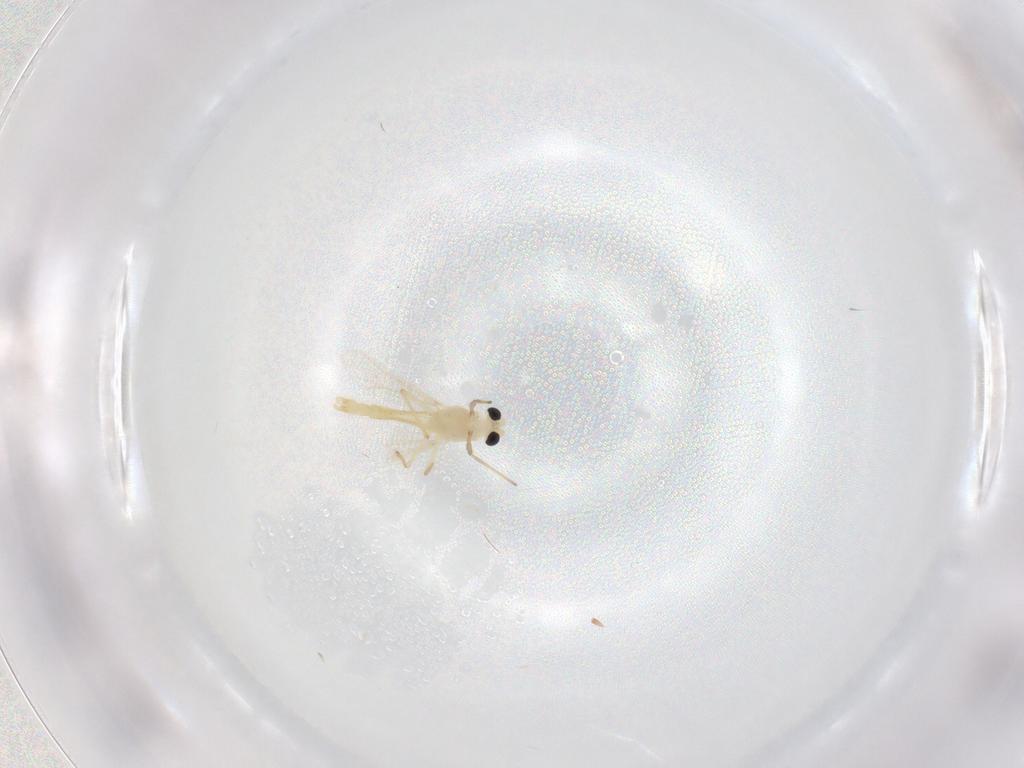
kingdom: Animalia
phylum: Arthropoda
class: Insecta
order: Diptera
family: Chironomidae
